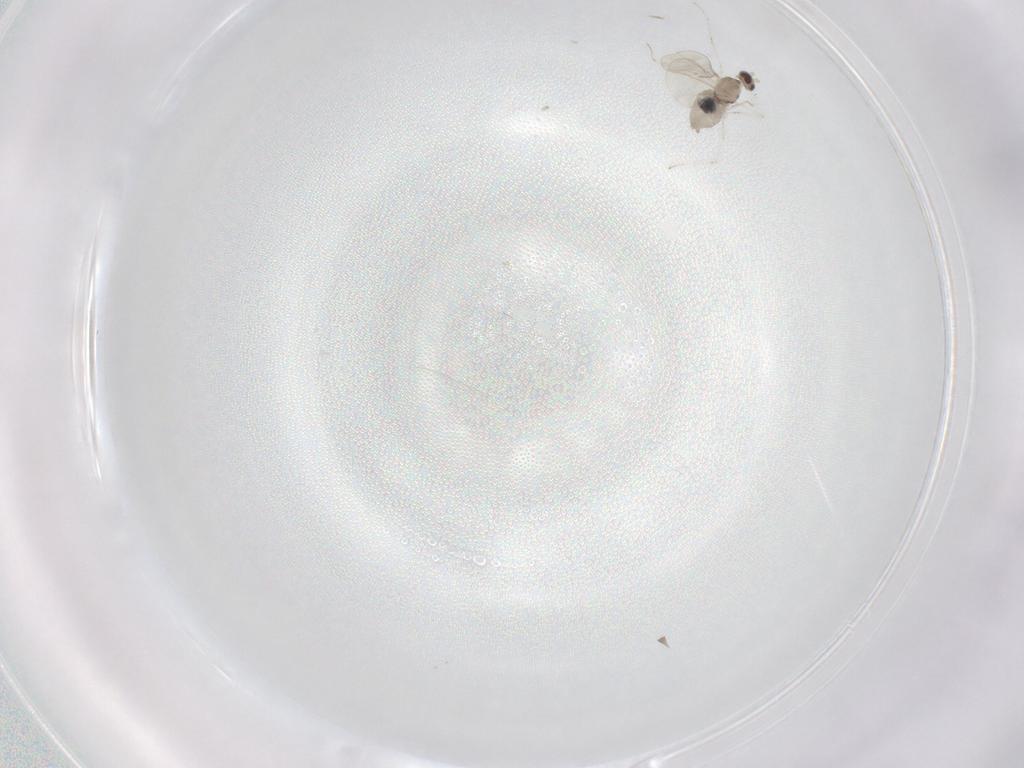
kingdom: Animalia
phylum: Arthropoda
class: Insecta
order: Diptera
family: Cecidomyiidae
